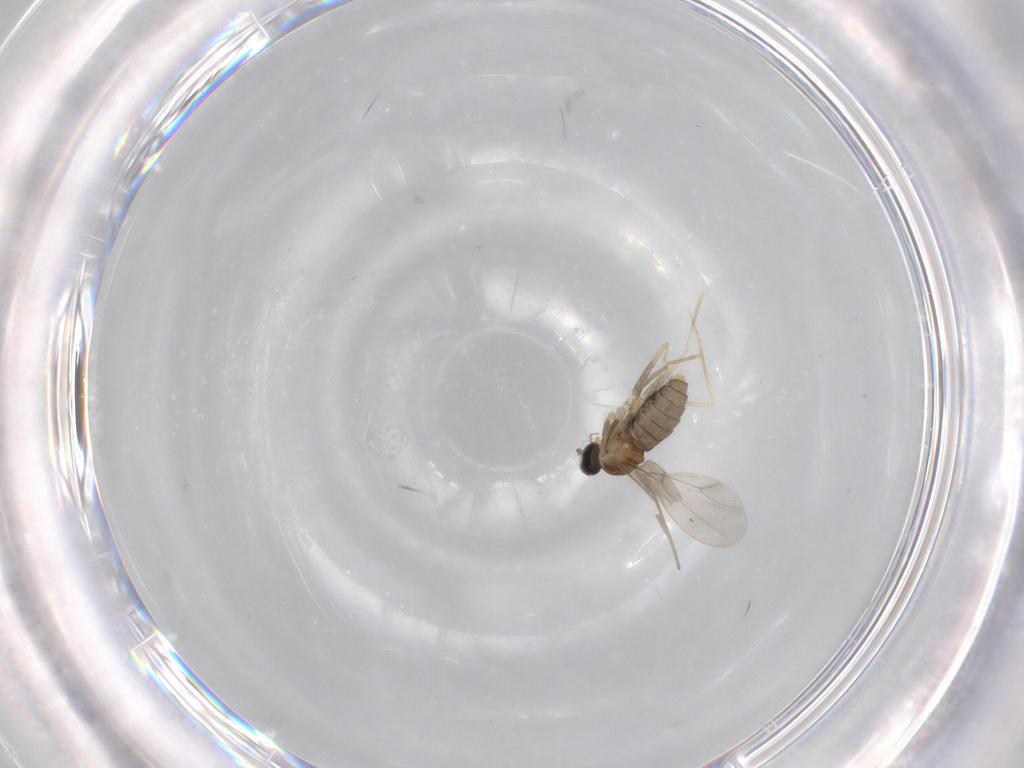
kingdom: Animalia
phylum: Arthropoda
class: Insecta
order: Diptera
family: Cecidomyiidae
